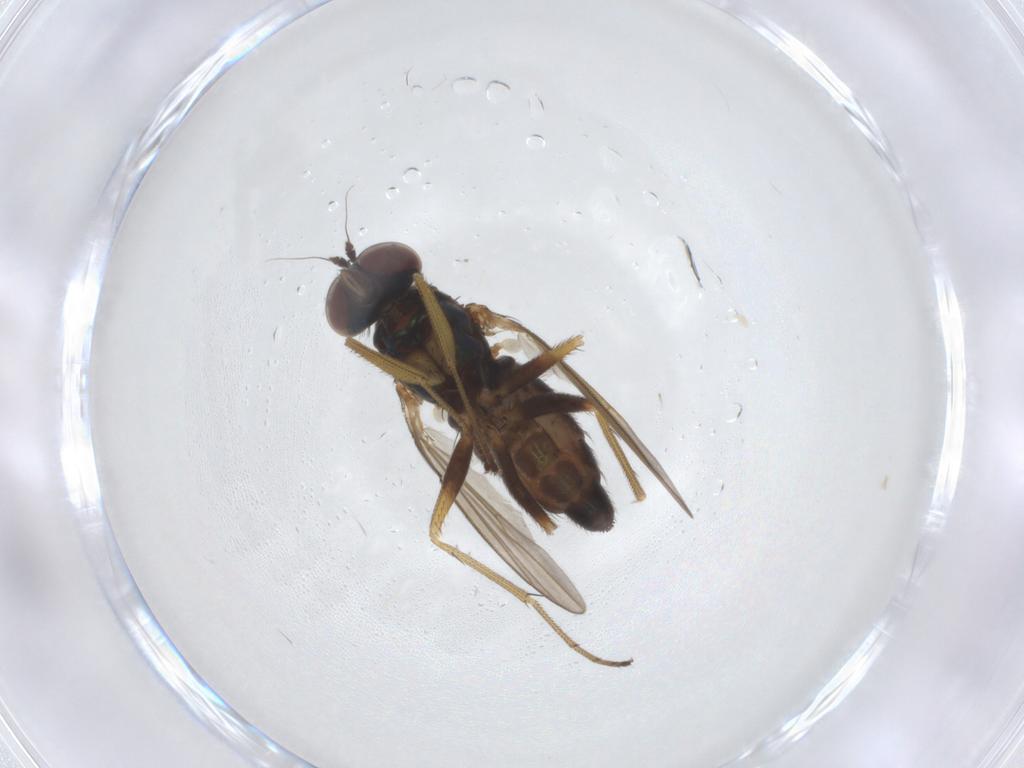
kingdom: Animalia
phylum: Arthropoda
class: Insecta
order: Diptera
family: Dolichopodidae
